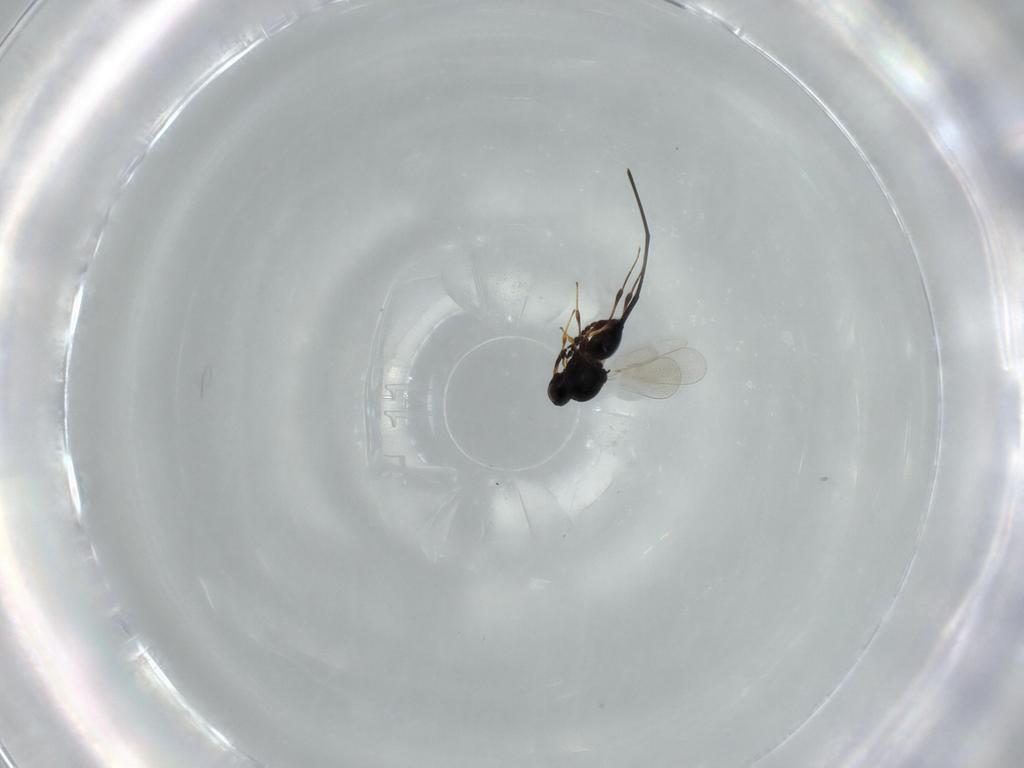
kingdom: Animalia
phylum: Arthropoda
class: Insecta
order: Hymenoptera
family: Platygastridae
